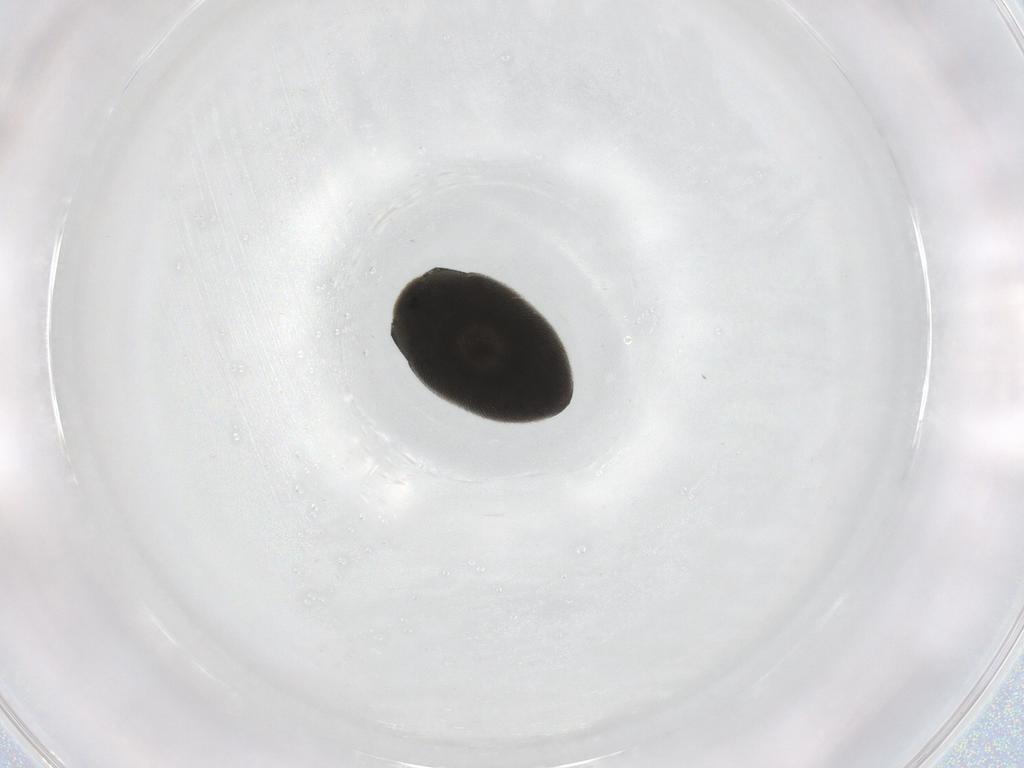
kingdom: Animalia
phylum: Arthropoda
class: Insecta
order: Coleoptera
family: Limnichidae
